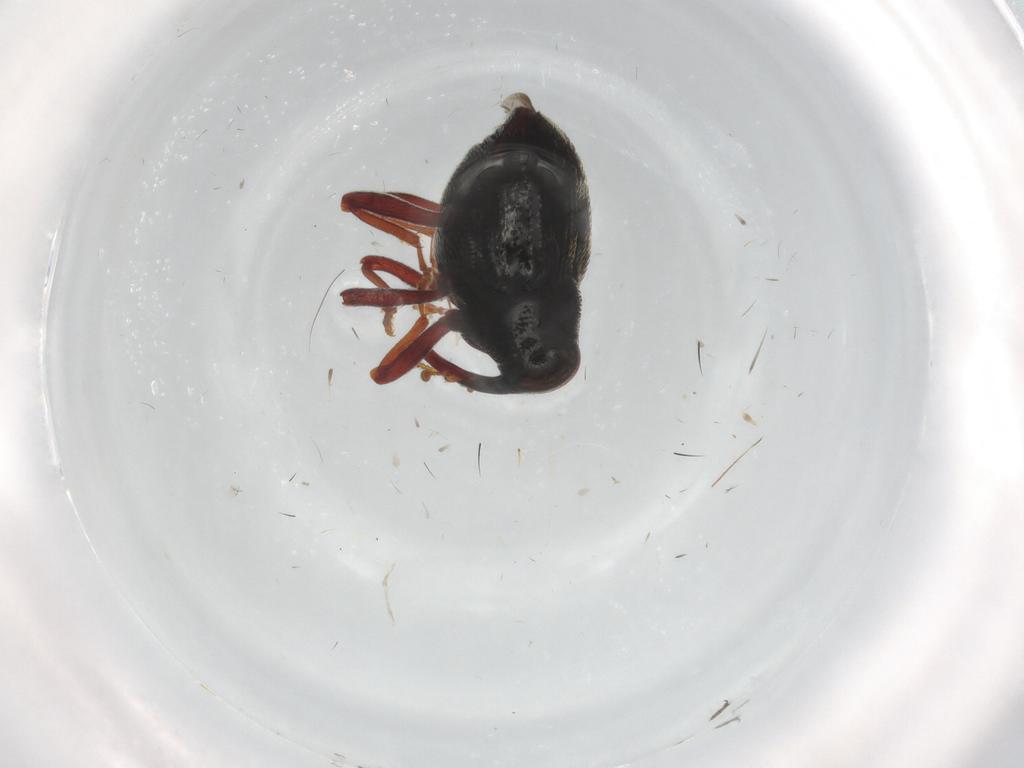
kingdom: Animalia
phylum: Arthropoda
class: Insecta
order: Coleoptera
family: Curculionidae
